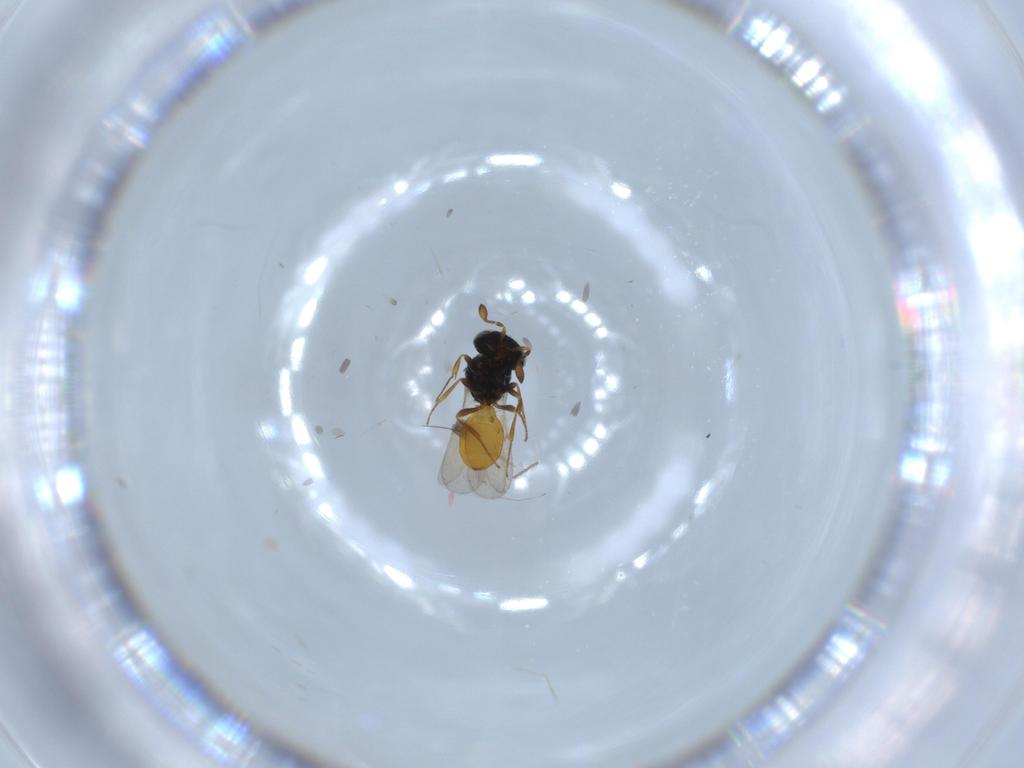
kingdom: Animalia
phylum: Arthropoda
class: Insecta
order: Hymenoptera
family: Scelionidae
